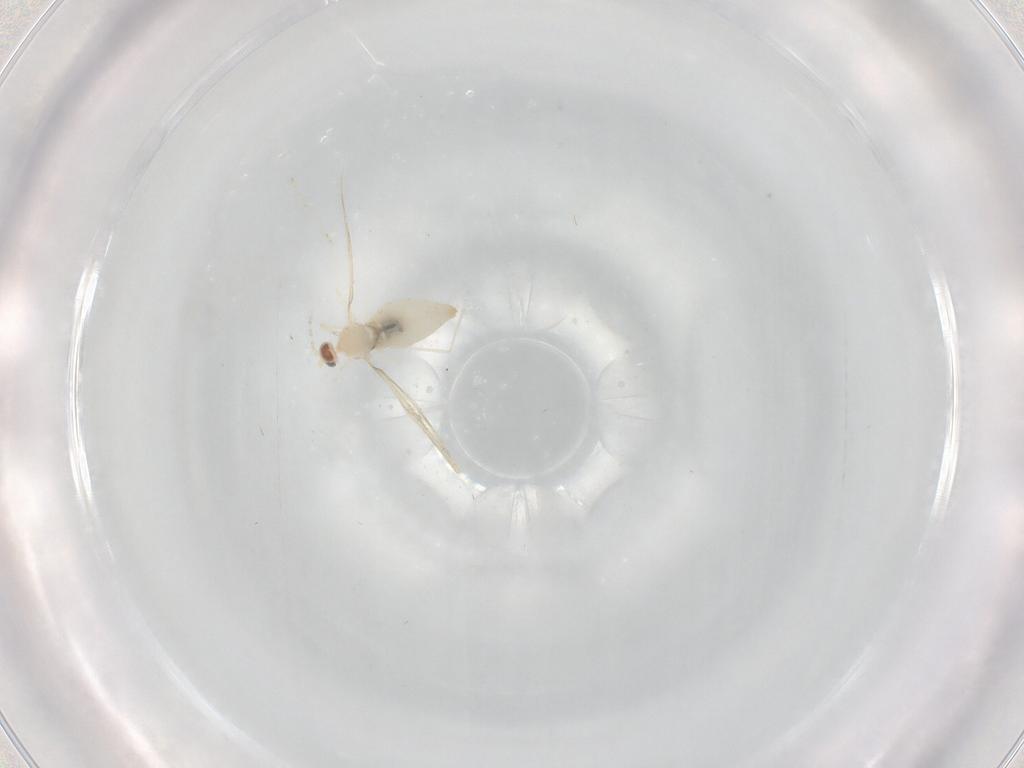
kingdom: Animalia
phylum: Arthropoda
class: Insecta
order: Diptera
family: Cecidomyiidae
